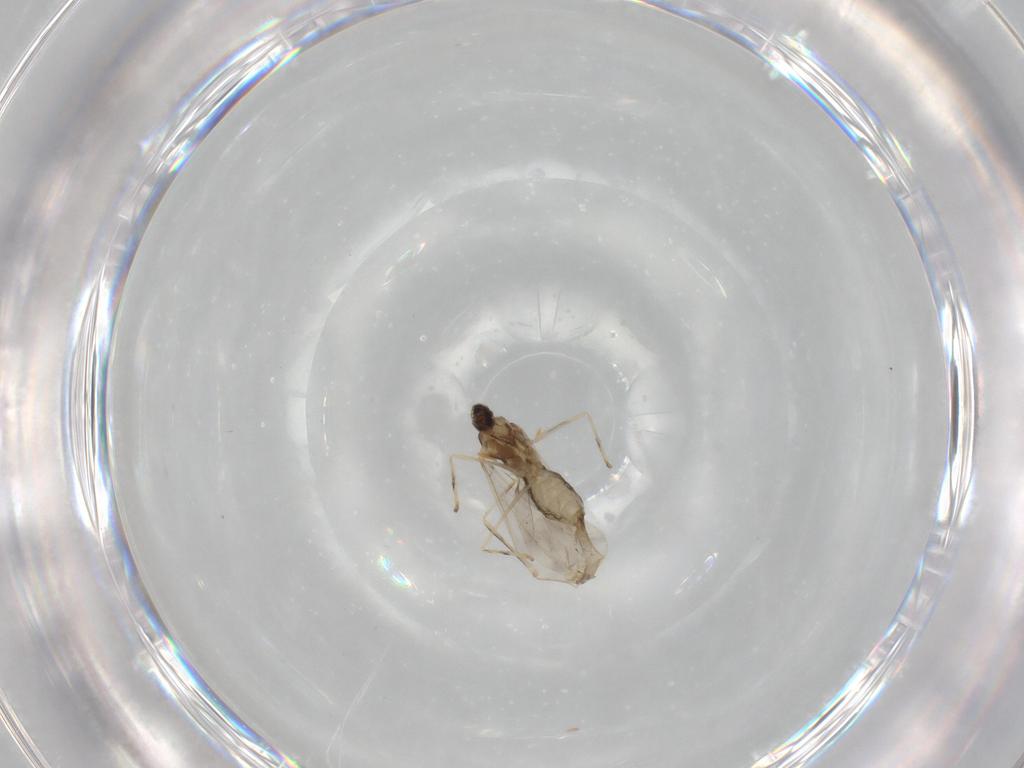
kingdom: Animalia
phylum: Arthropoda
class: Insecta
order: Diptera
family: Cecidomyiidae
